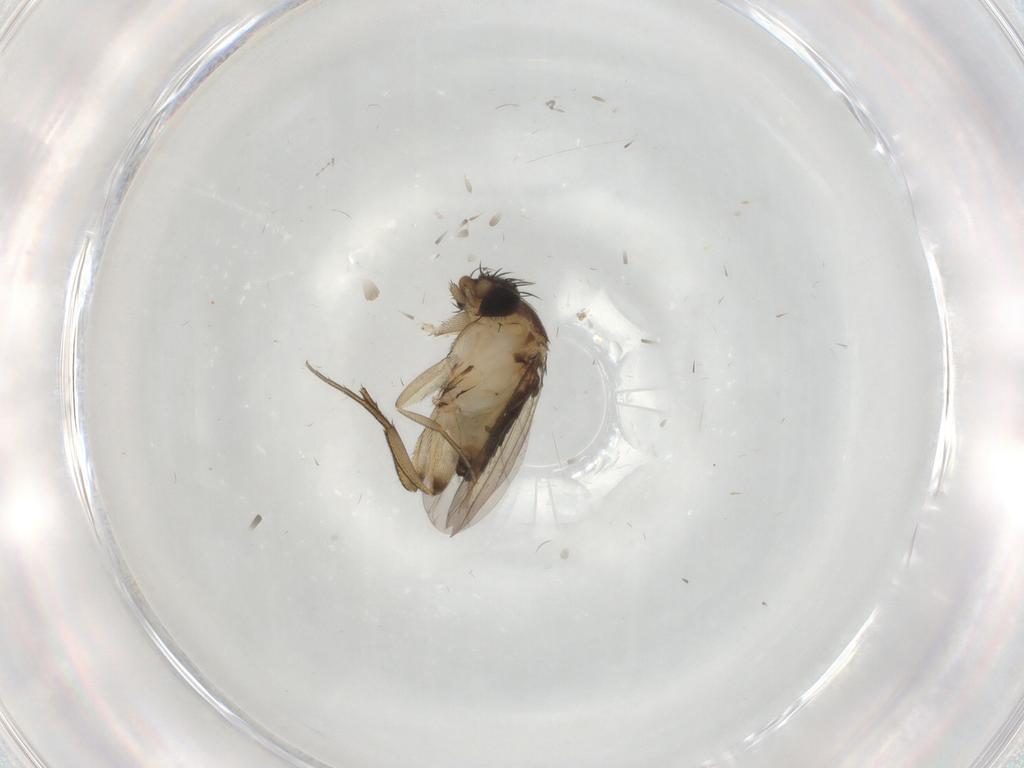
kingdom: Animalia
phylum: Arthropoda
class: Insecta
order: Diptera
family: Phoridae
